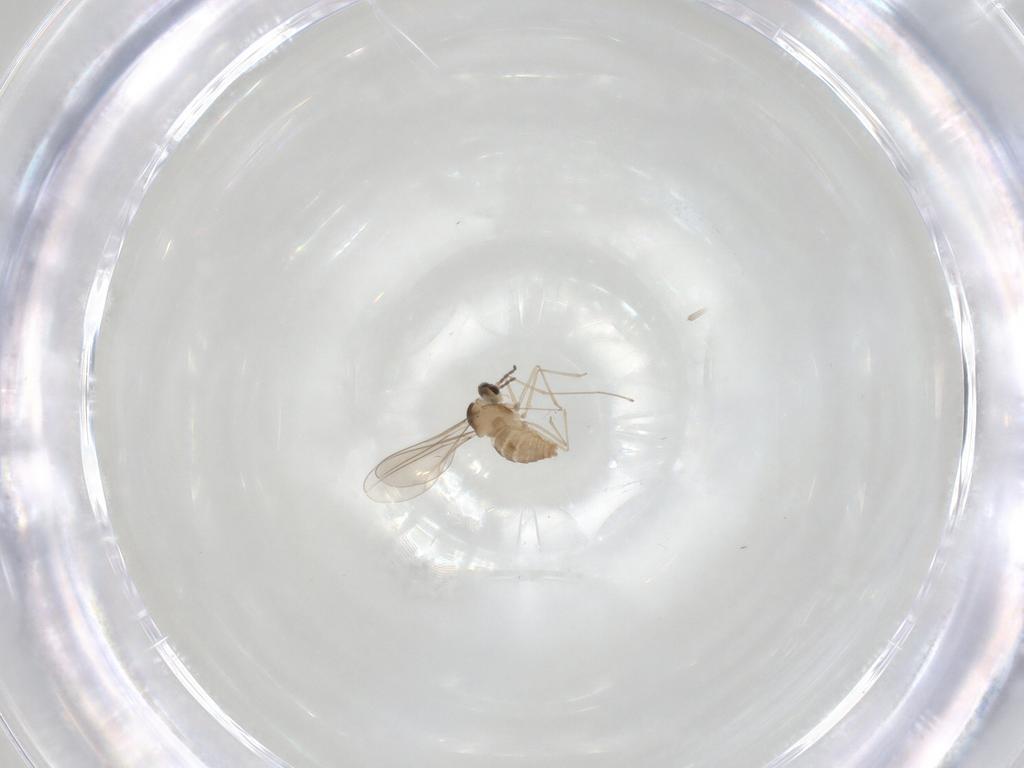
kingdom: Animalia
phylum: Arthropoda
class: Insecta
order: Diptera
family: Cecidomyiidae
